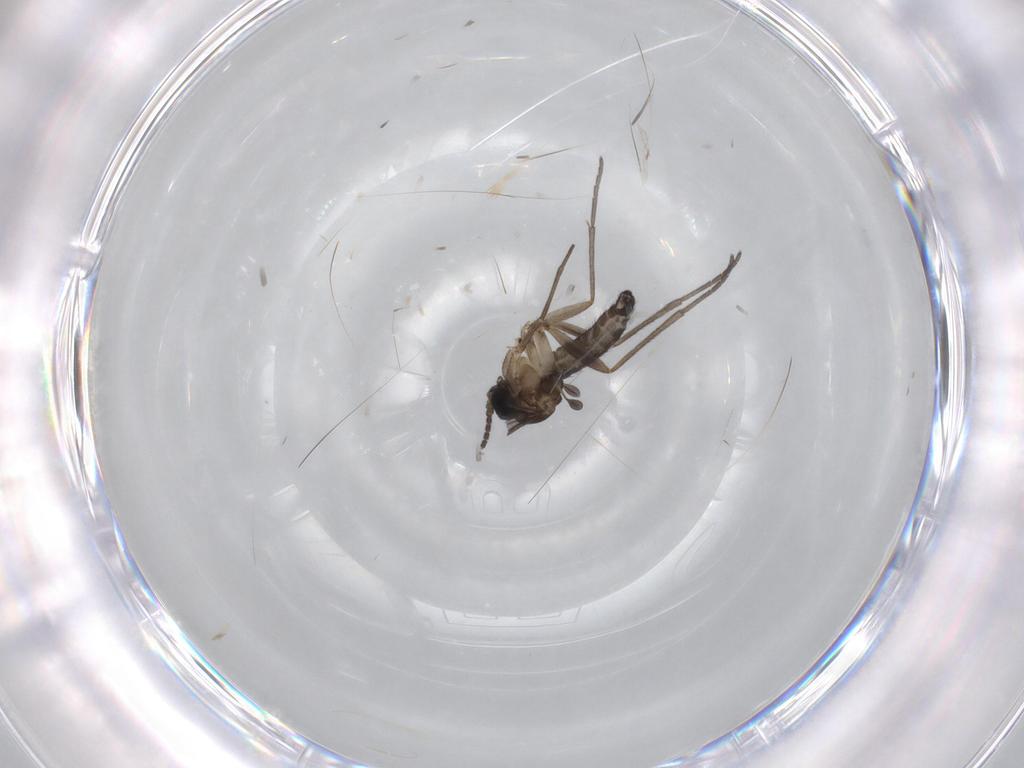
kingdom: Animalia
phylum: Arthropoda
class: Insecta
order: Diptera
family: Sciaridae
